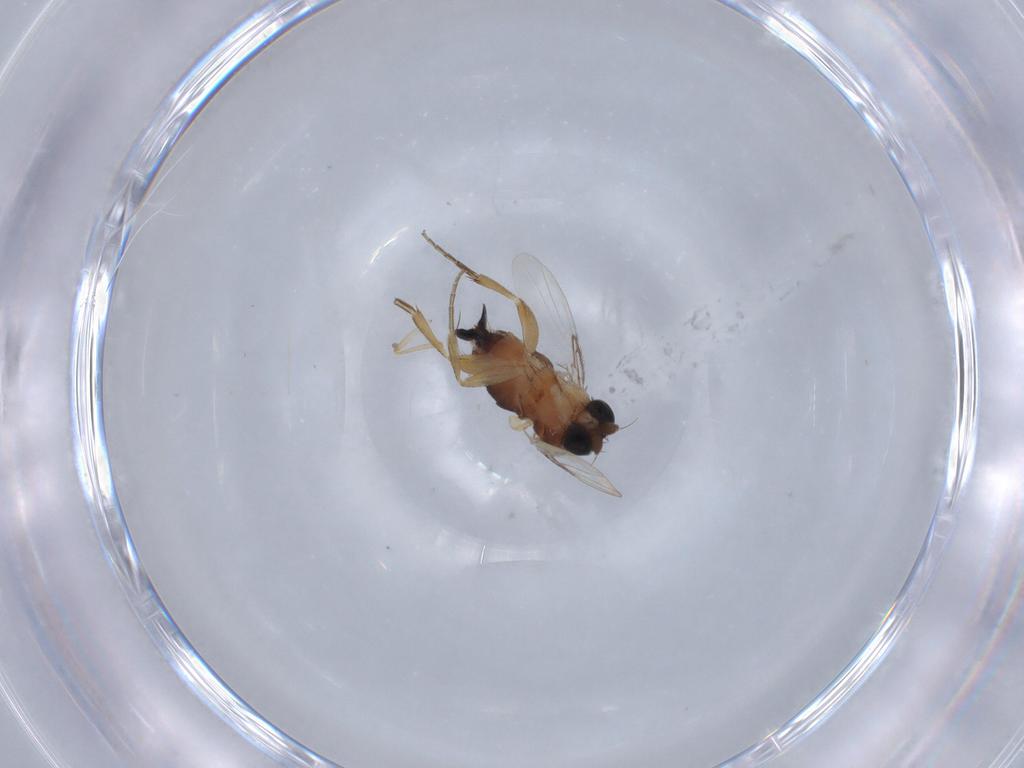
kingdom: Animalia
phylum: Arthropoda
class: Insecta
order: Diptera
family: Phoridae
